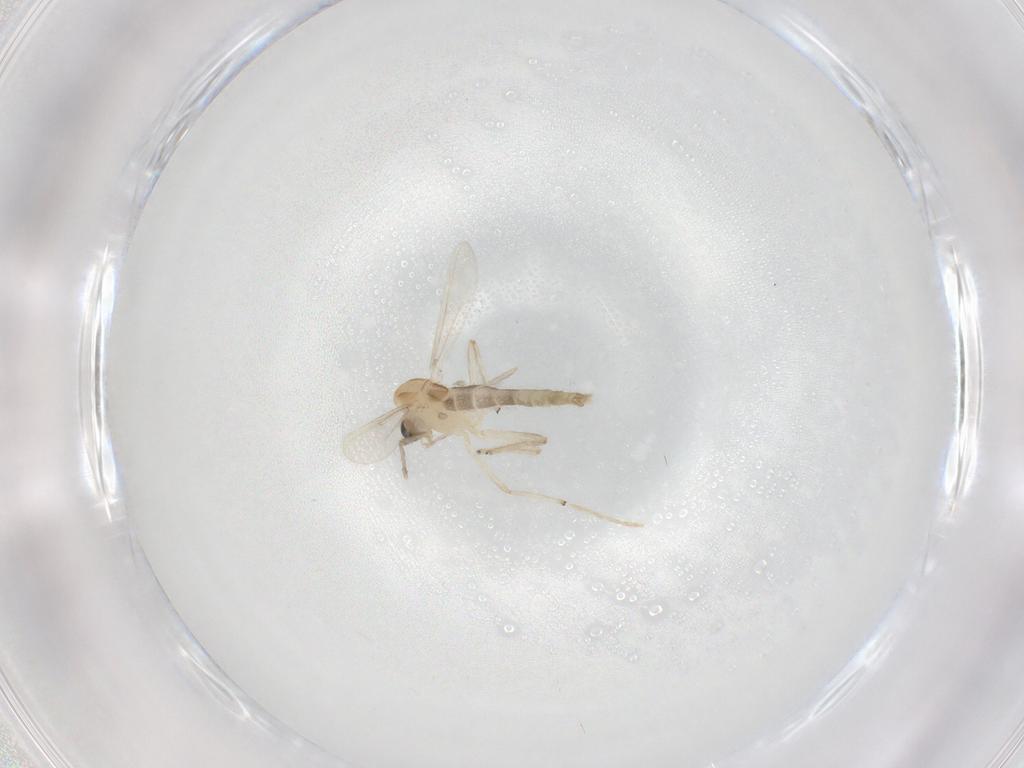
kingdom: Animalia
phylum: Arthropoda
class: Insecta
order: Diptera
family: Chironomidae
